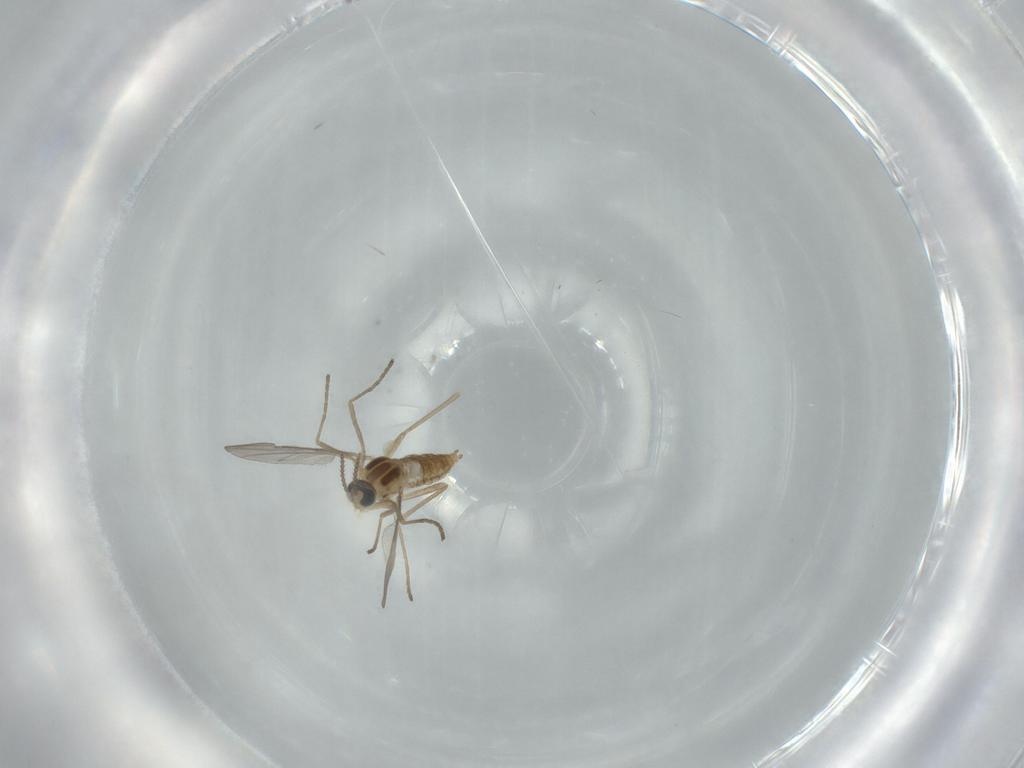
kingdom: Animalia
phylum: Arthropoda
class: Insecta
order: Diptera
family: Cecidomyiidae
